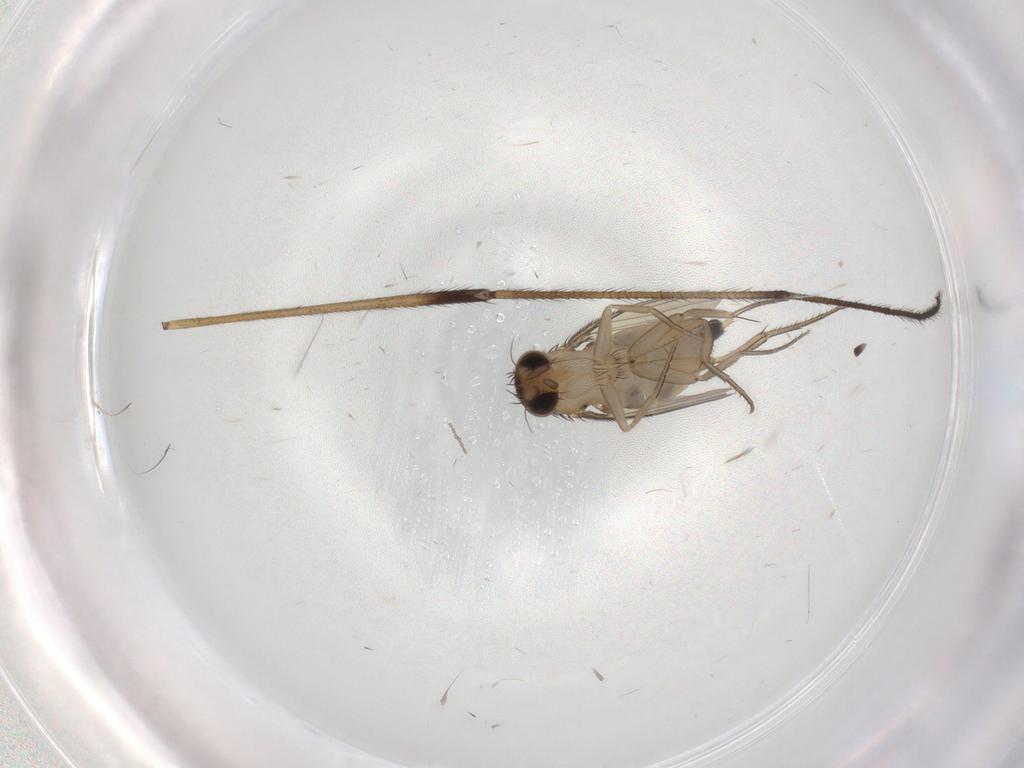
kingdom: Animalia
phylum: Arthropoda
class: Insecta
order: Diptera
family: Phoridae
